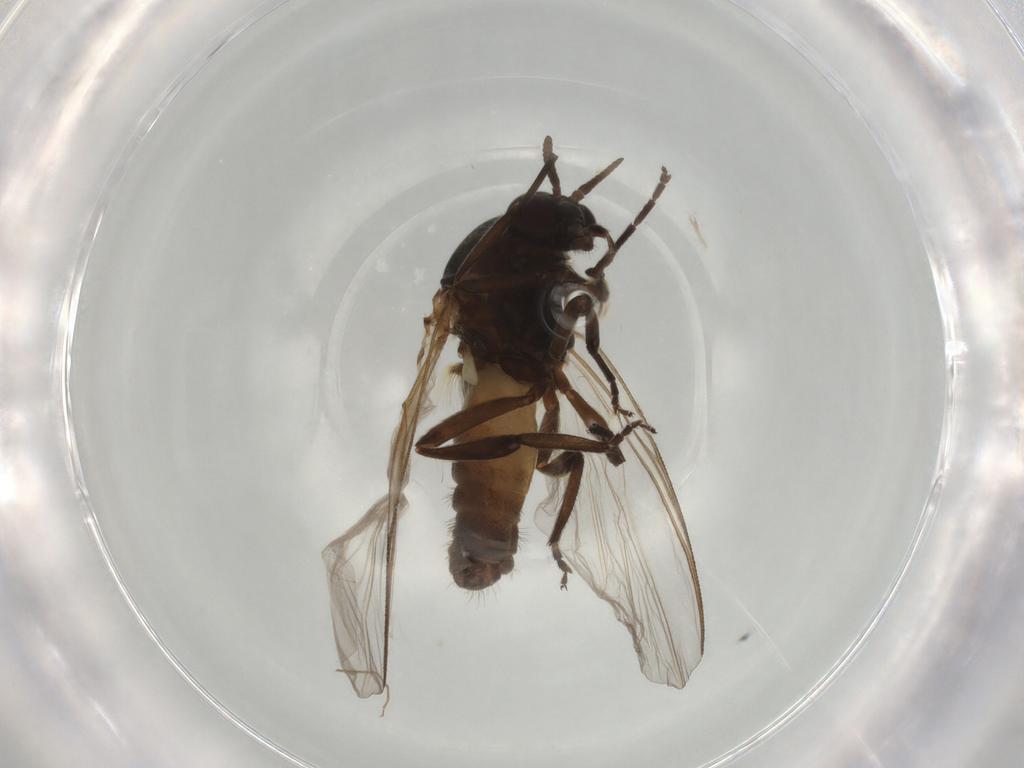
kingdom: Animalia
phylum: Arthropoda
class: Insecta
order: Diptera
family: Simuliidae
